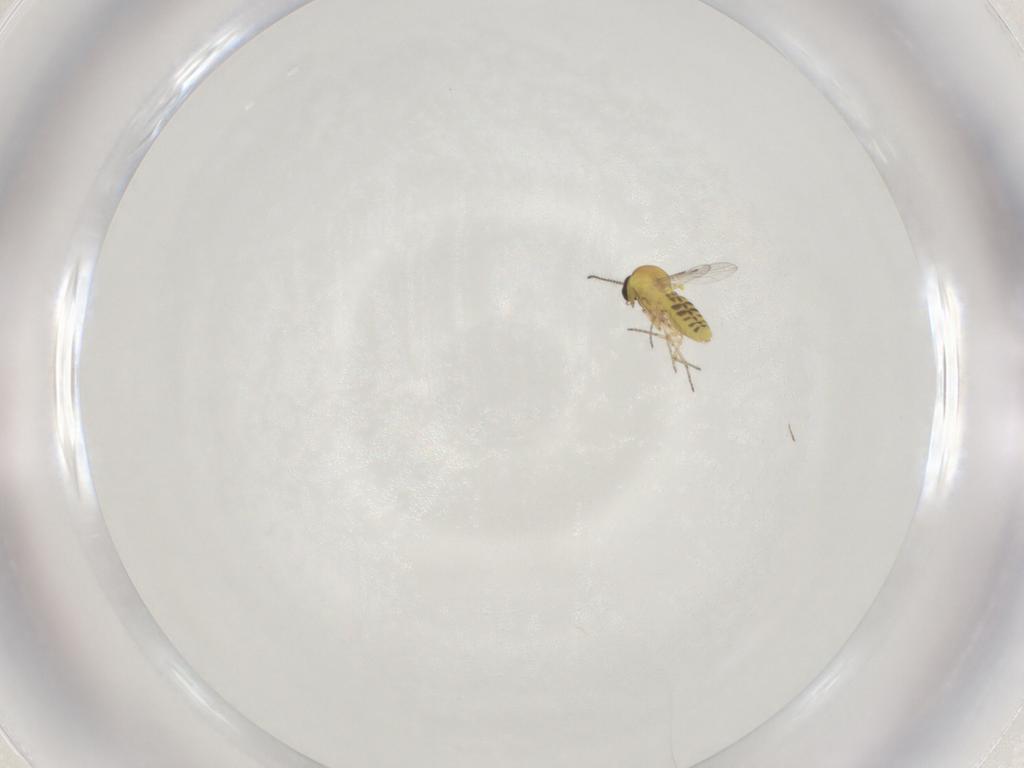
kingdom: Animalia
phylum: Arthropoda
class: Insecta
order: Diptera
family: Ceratopogonidae
